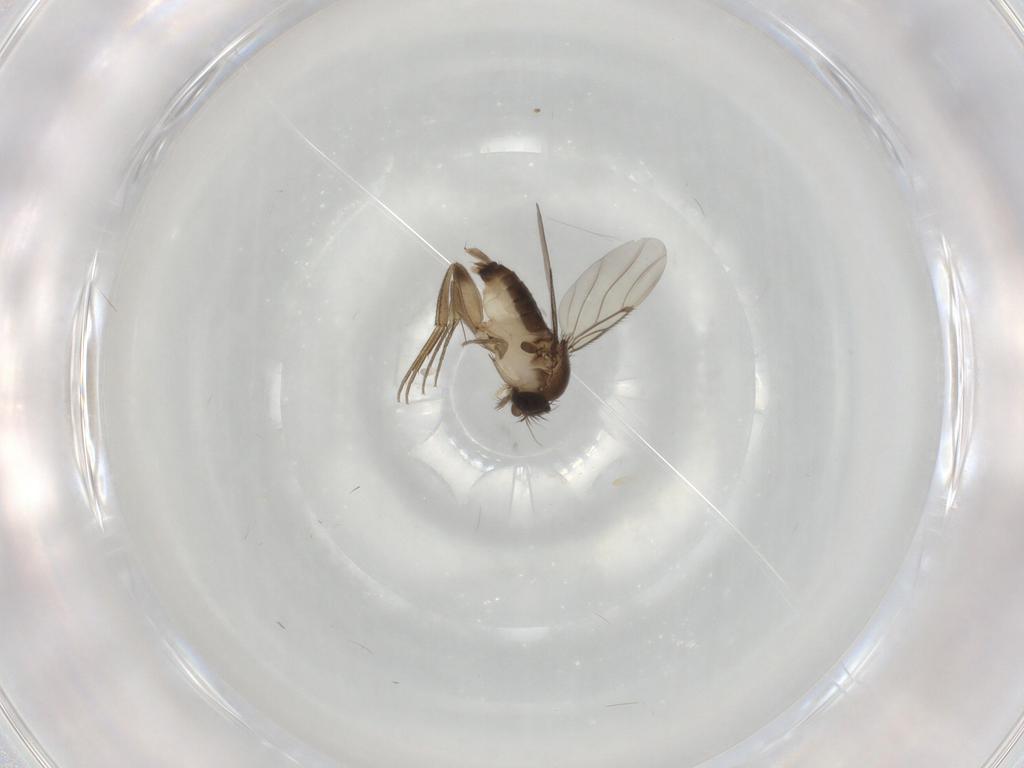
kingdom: Animalia
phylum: Arthropoda
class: Insecta
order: Diptera
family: Phoridae
